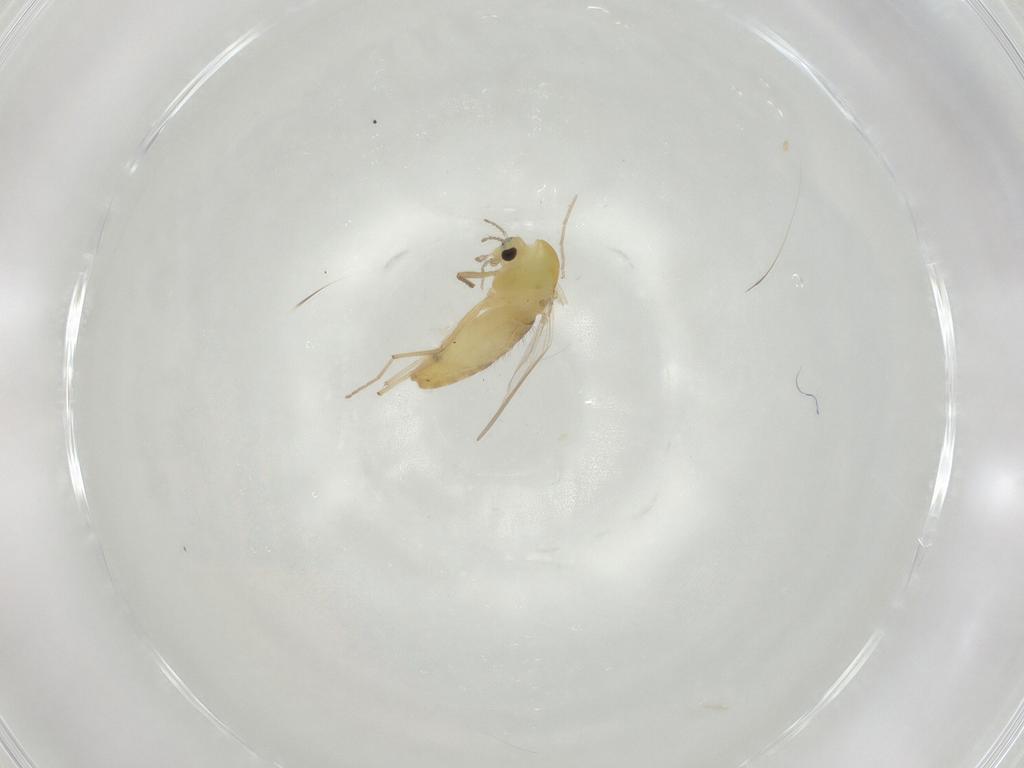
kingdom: Animalia
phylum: Arthropoda
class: Insecta
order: Diptera
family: Chironomidae
